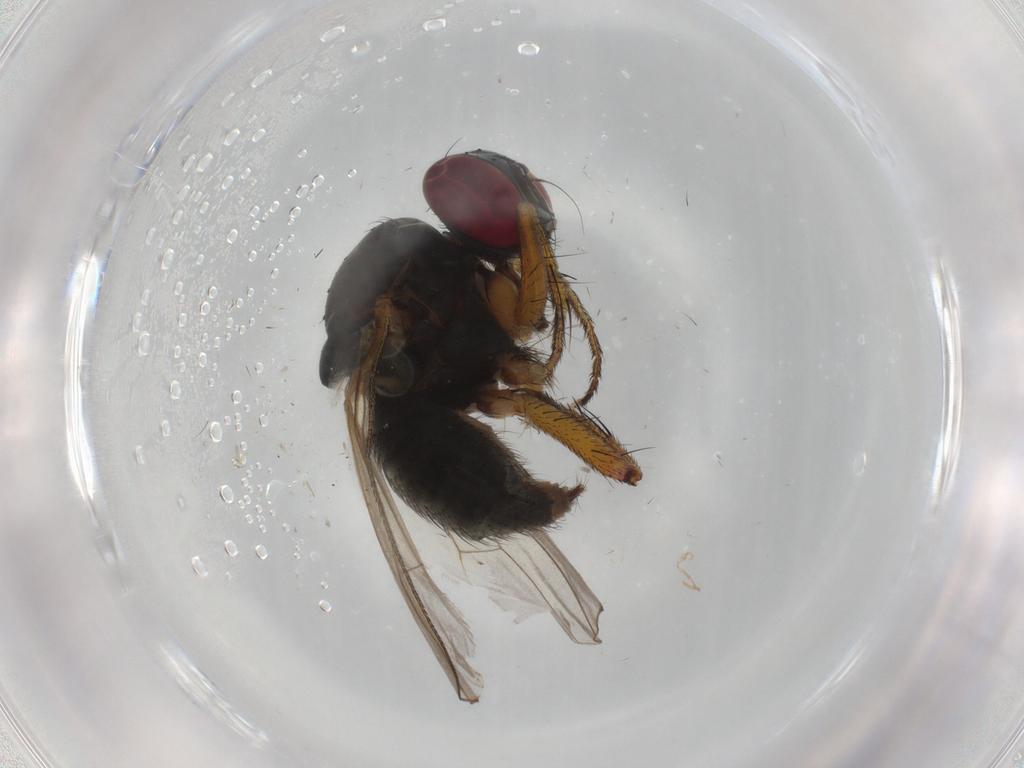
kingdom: Animalia
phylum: Arthropoda
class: Insecta
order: Diptera
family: Muscidae
